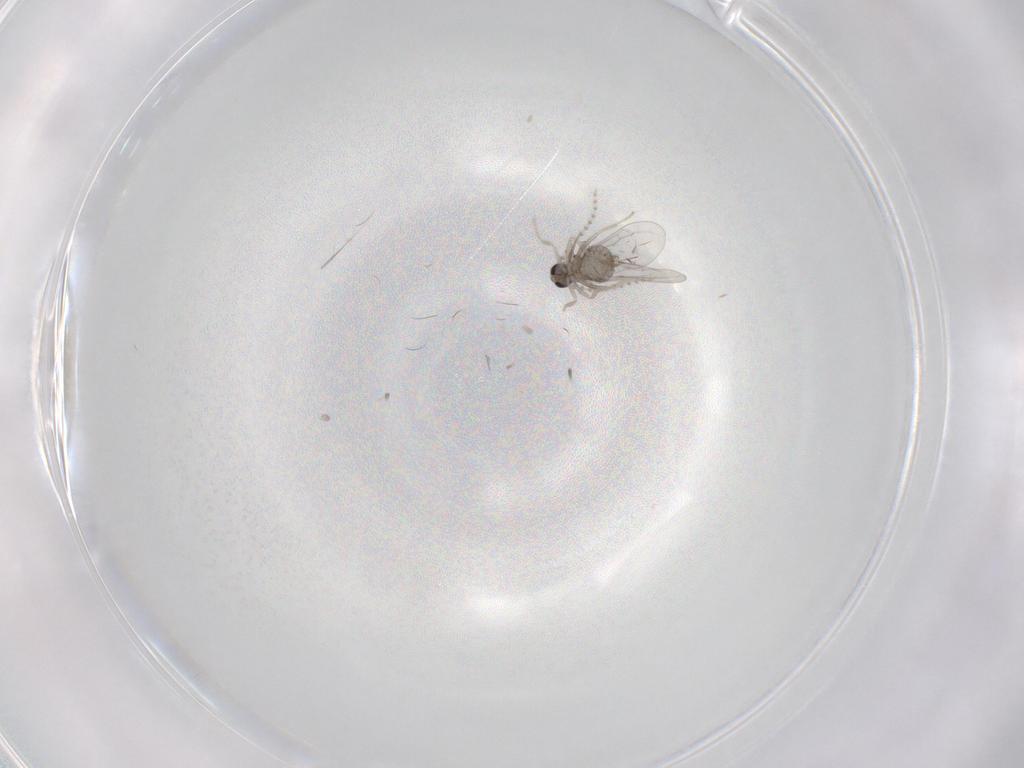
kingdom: Animalia
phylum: Arthropoda
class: Insecta
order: Diptera
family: Cecidomyiidae
